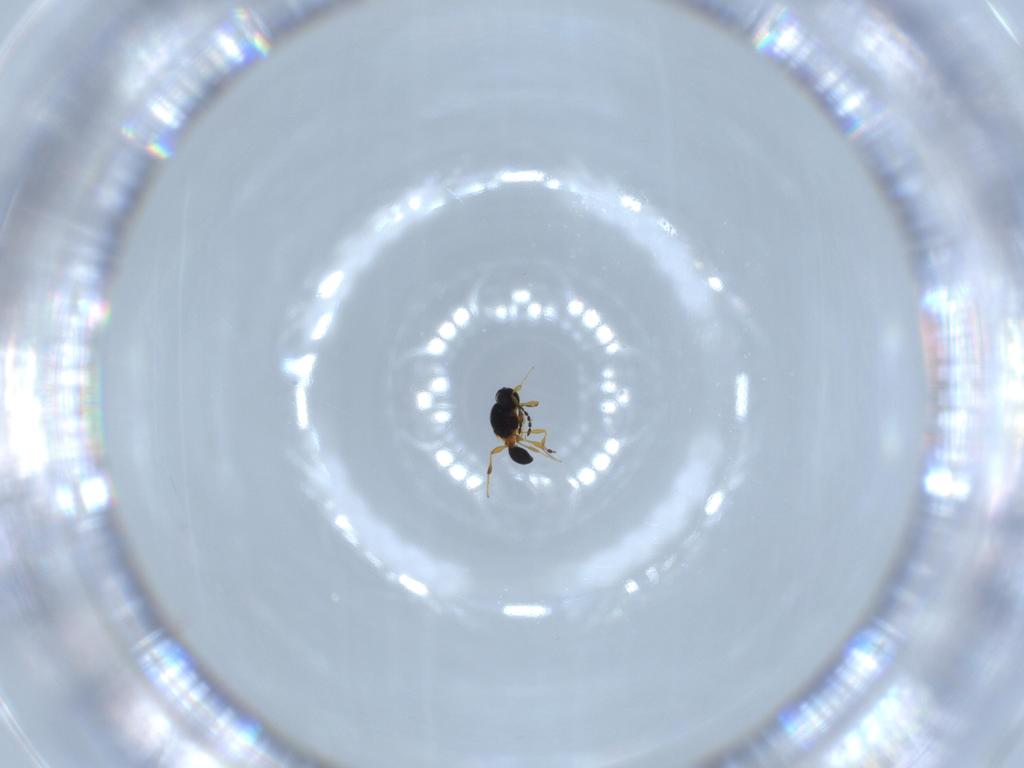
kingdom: Animalia
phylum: Arthropoda
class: Insecta
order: Hymenoptera
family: Platygastridae
